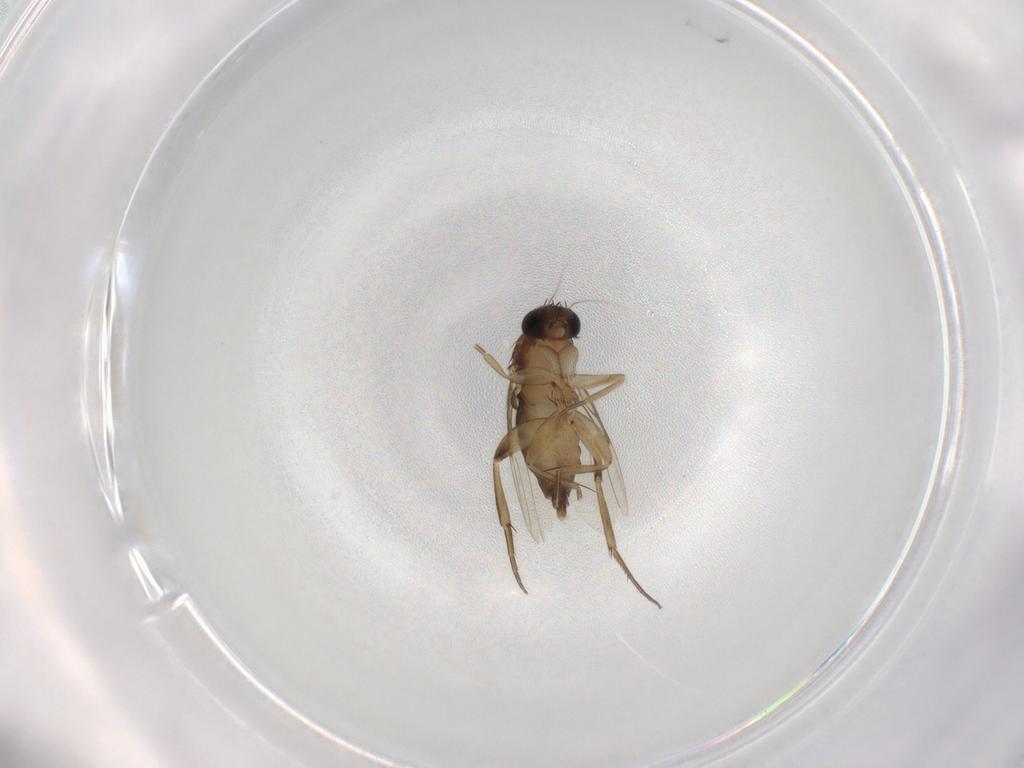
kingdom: Animalia
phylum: Arthropoda
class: Insecta
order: Diptera
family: Phoridae
